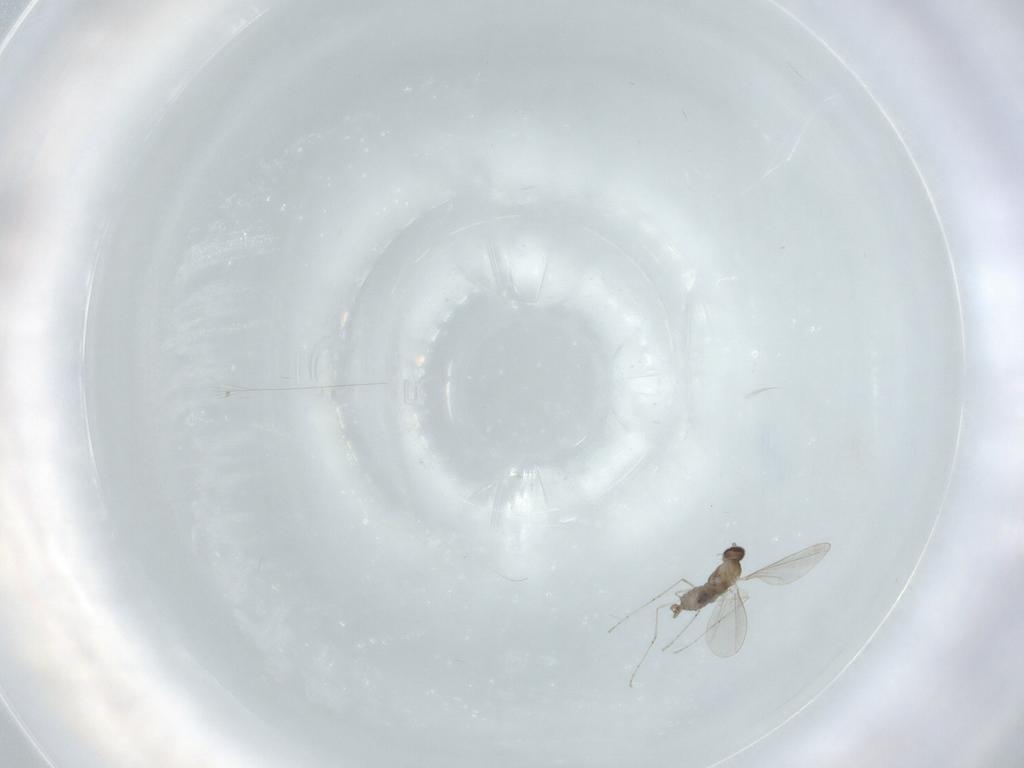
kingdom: Animalia
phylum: Arthropoda
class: Insecta
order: Diptera
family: Cecidomyiidae
